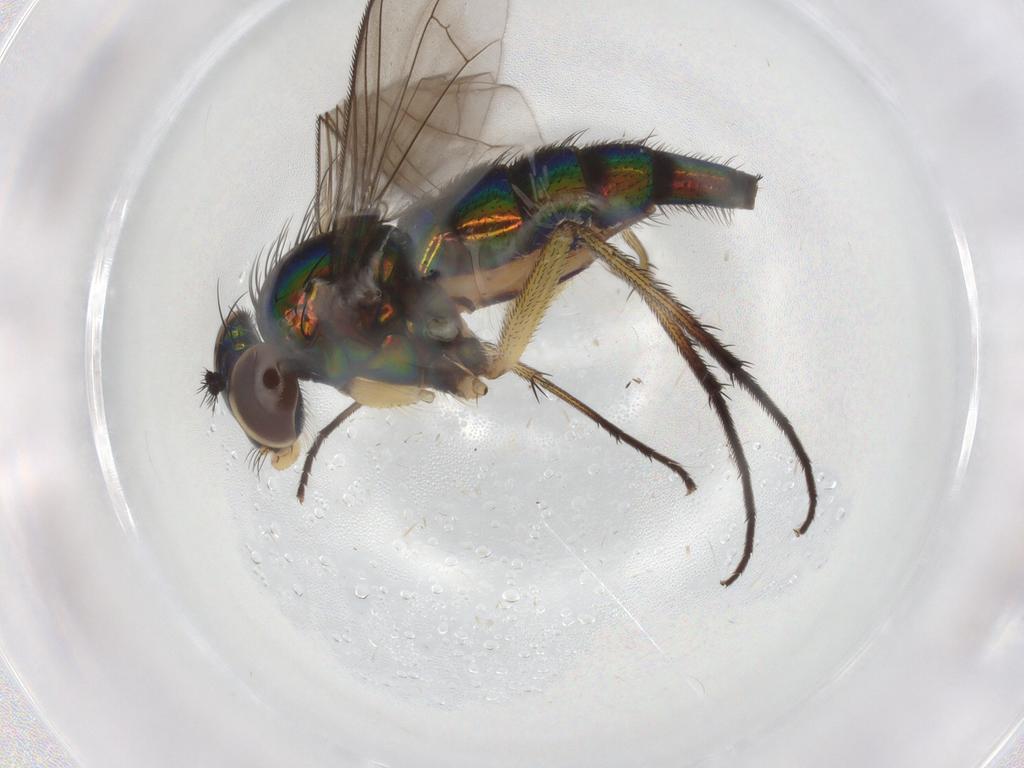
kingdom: Animalia
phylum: Arthropoda
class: Insecta
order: Diptera
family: Dolichopodidae
